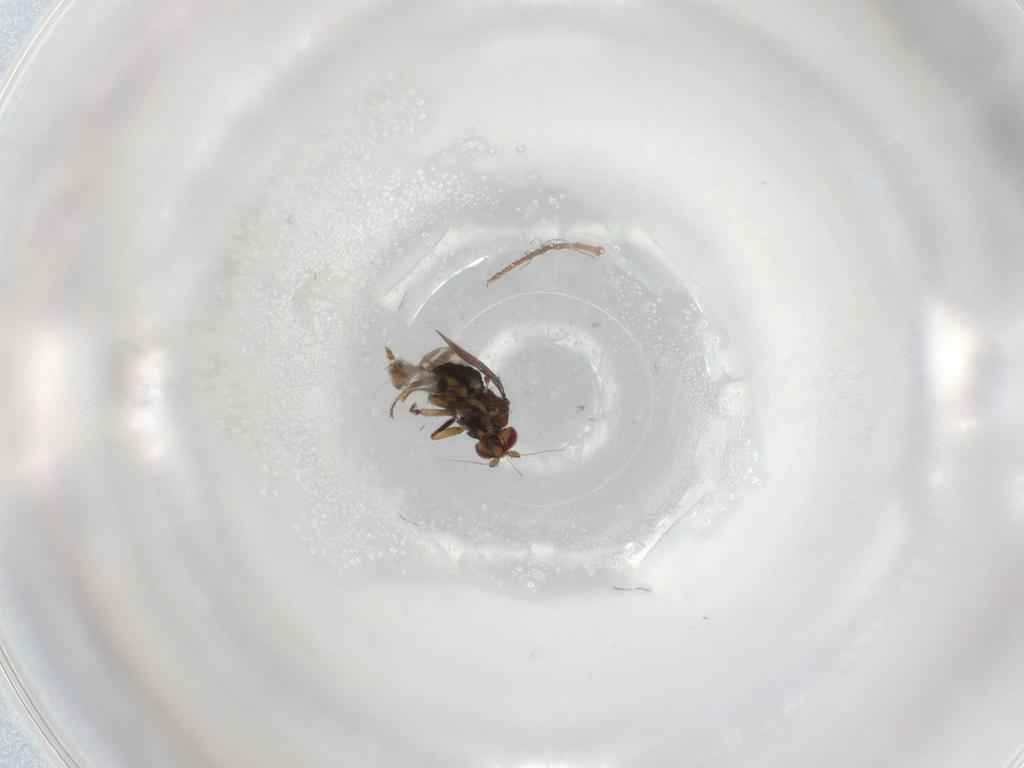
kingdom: Animalia
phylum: Arthropoda
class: Insecta
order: Diptera
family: Sphaeroceridae
